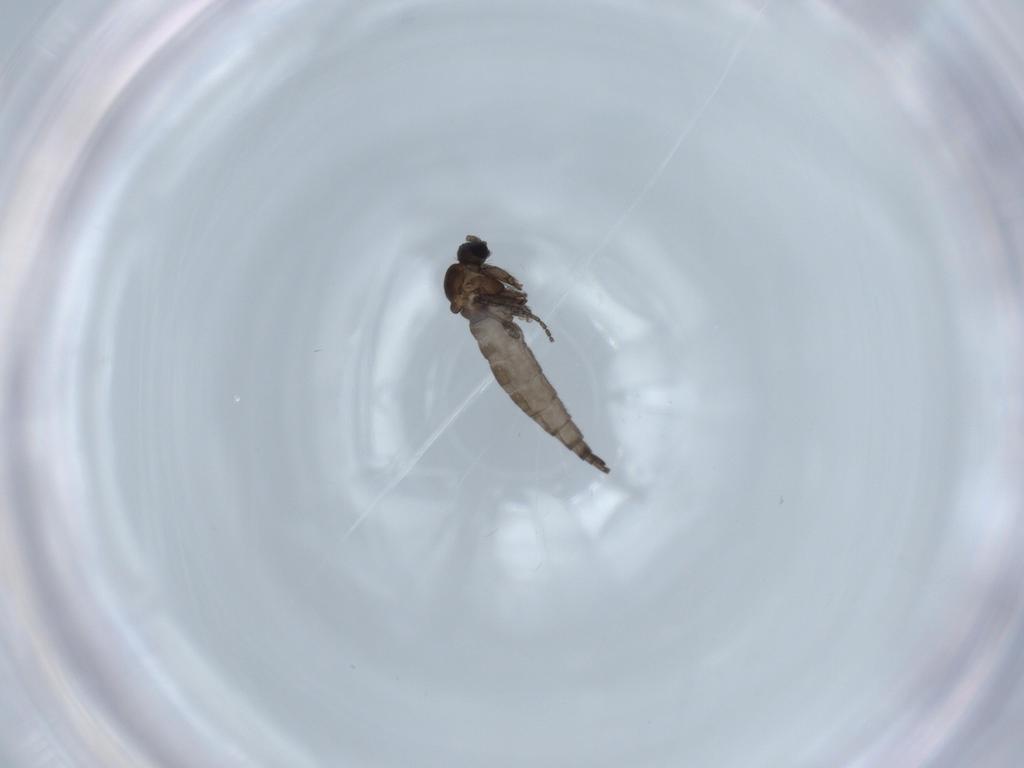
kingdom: Animalia
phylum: Arthropoda
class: Insecta
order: Diptera
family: Sciaridae
